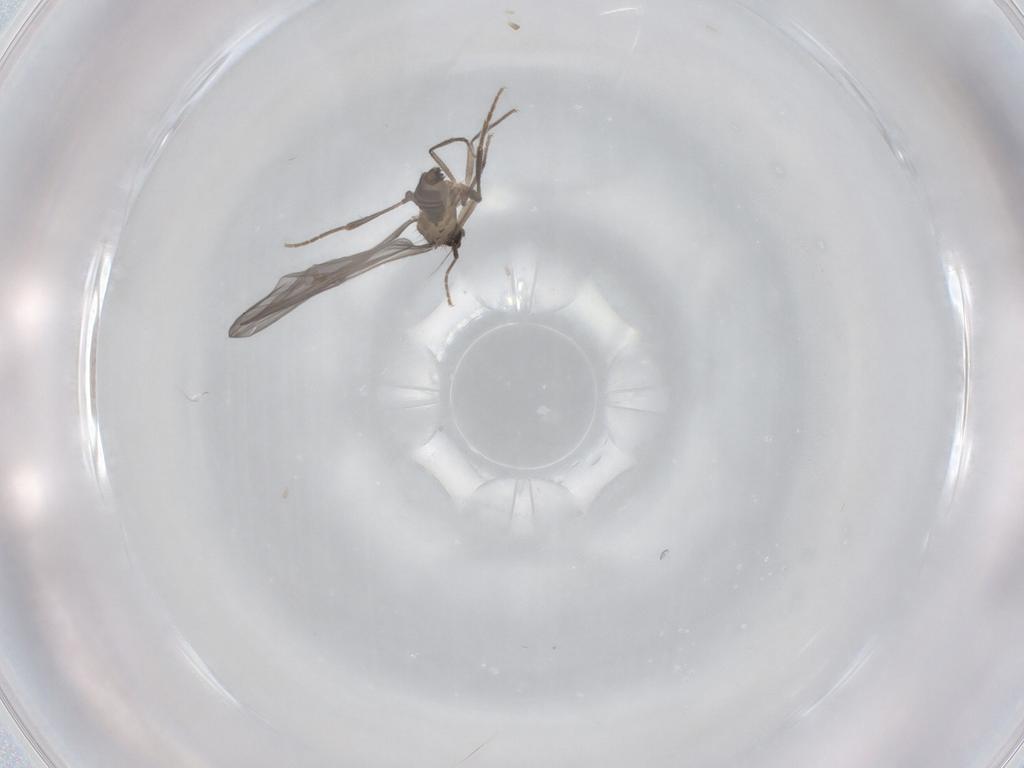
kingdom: Animalia
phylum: Arthropoda
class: Insecta
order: Diptera
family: Phoridae
